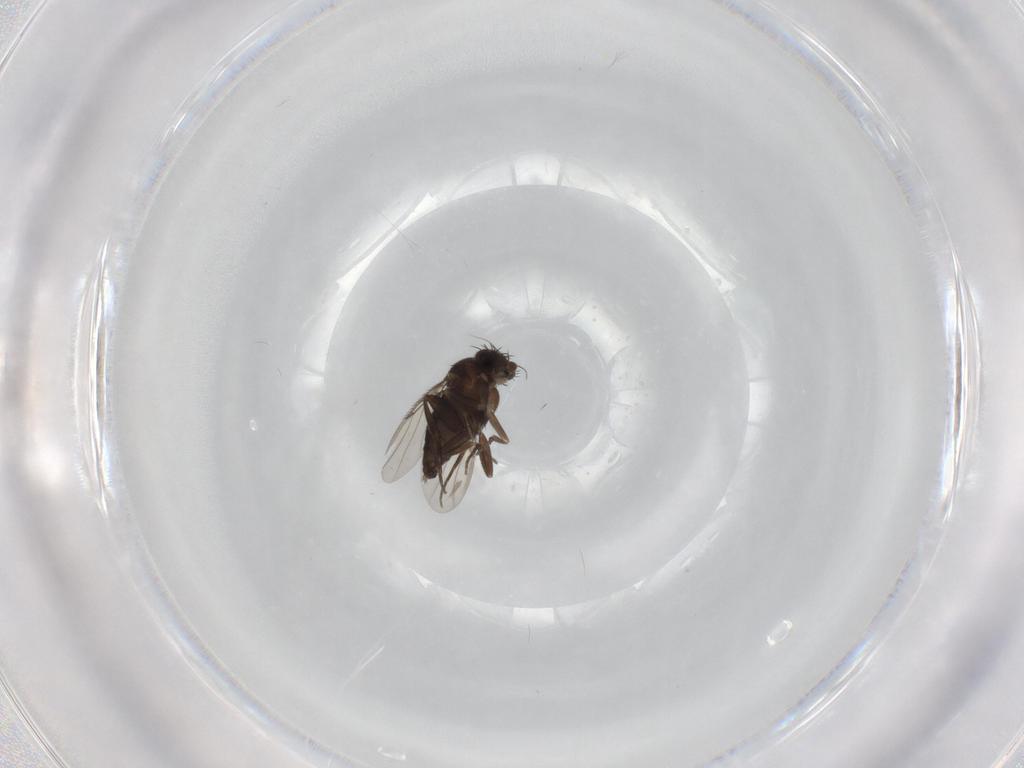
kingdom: Animalia
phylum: Arthropoda
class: Insecta
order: Diptera
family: Phoridae
